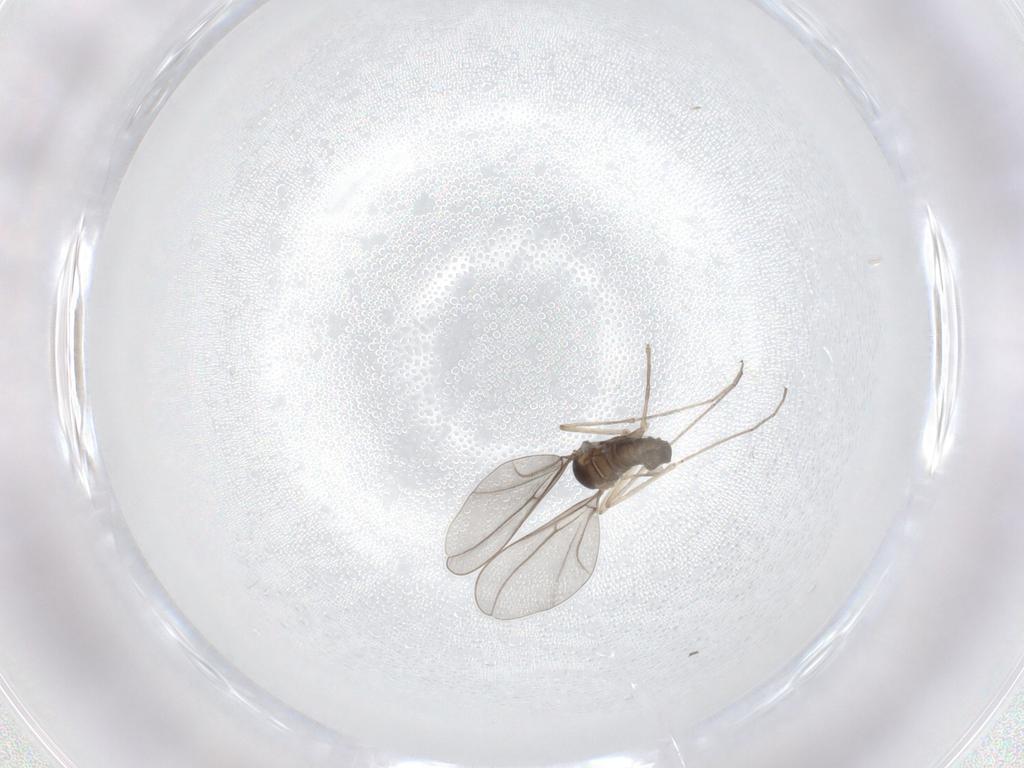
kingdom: Animalia
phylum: Arthropoda
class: Insecta
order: Diptera
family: Cecidomyiidae
